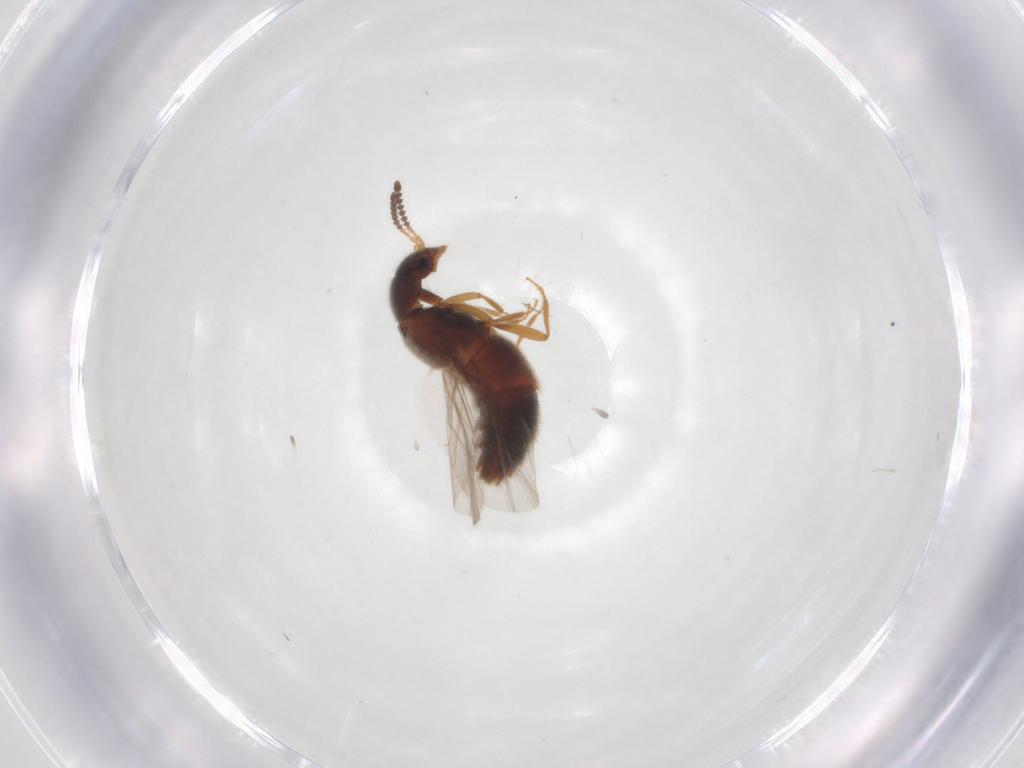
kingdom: Animalia
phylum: Arthropoda
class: Insecta
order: Coleoptera
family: Staphylinidae
